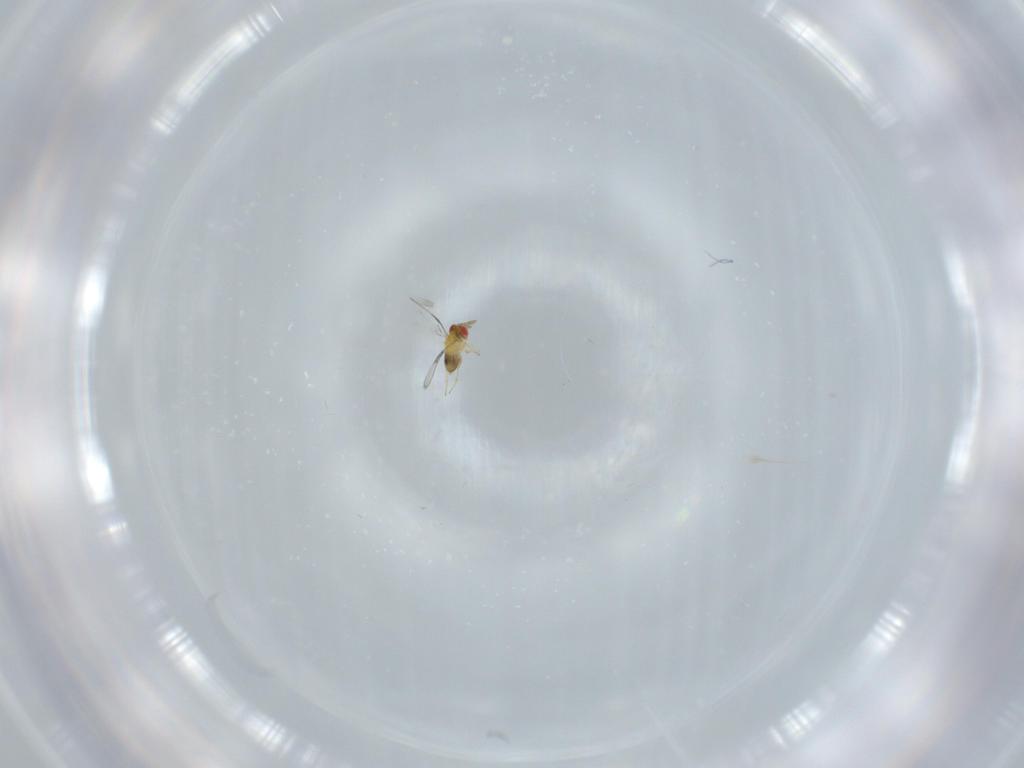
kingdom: Animalia
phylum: Arthropoda
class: Insecta
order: Hymenoptera
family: Trichogrammatidae
